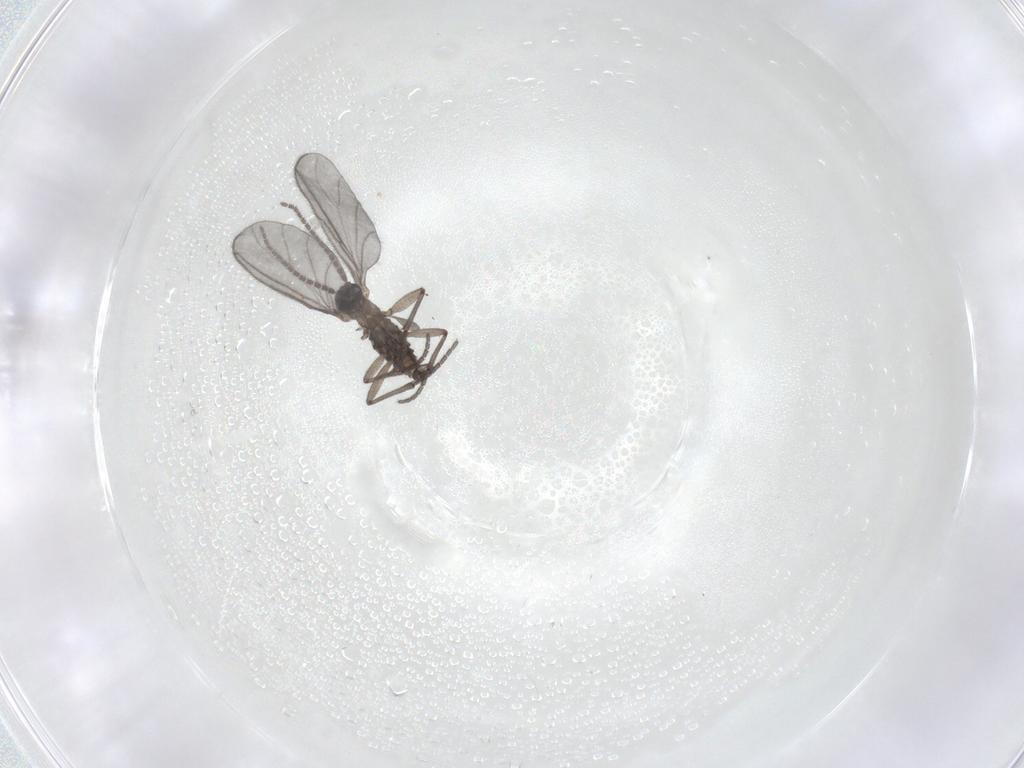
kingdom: Animalia
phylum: Arthropoda
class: Insecta
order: Diptera
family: Sciaridae
